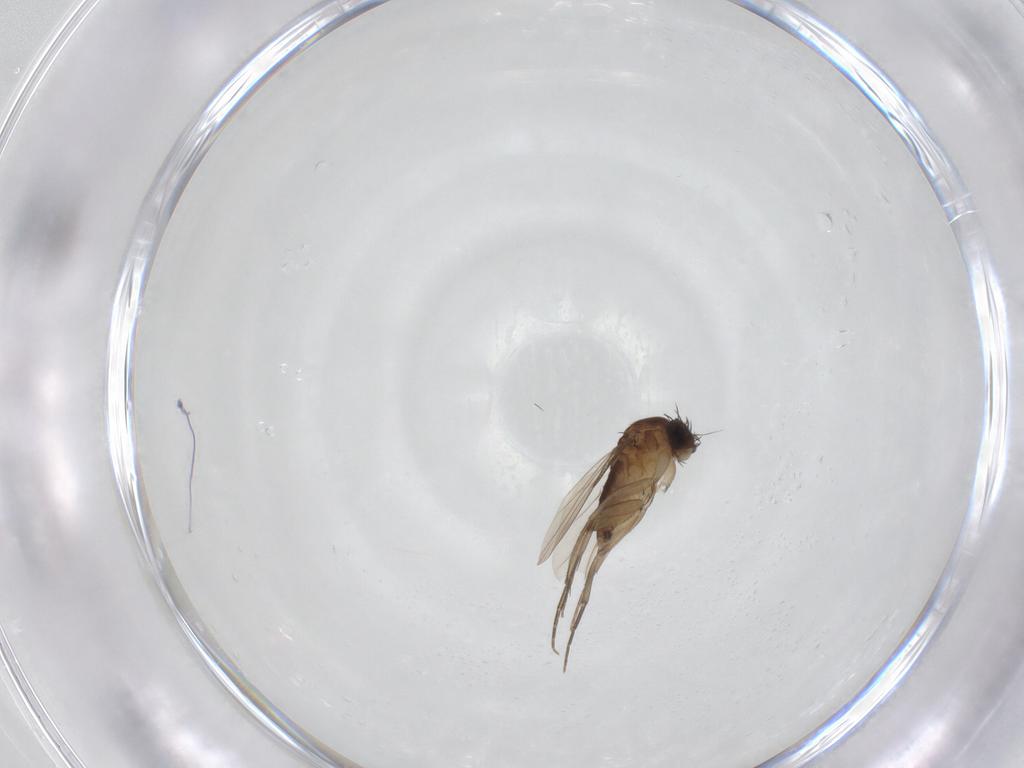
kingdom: Animalia
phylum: Arthropoda
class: Insecta
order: Diptera
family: Phoridae
